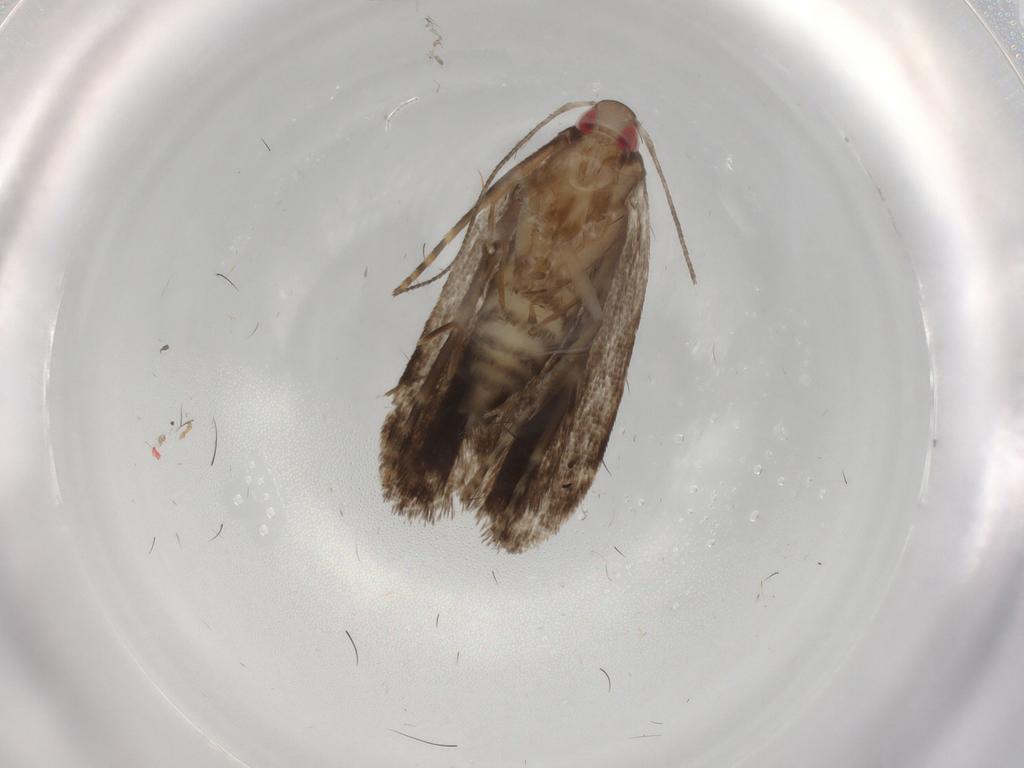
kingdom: Animalia
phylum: Arthropoda
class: Insecta
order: Lepidoptera
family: Gelechiidae
